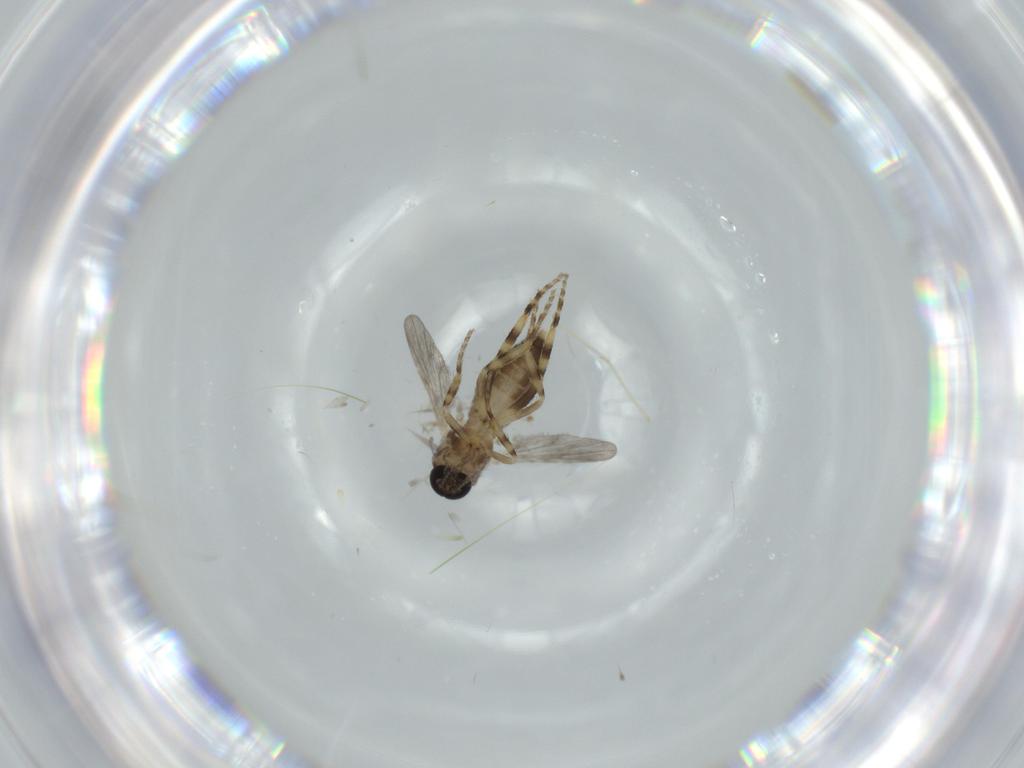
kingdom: Animalia
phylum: Arthropoda
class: Insecta
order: Diptera
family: Chironomidae
